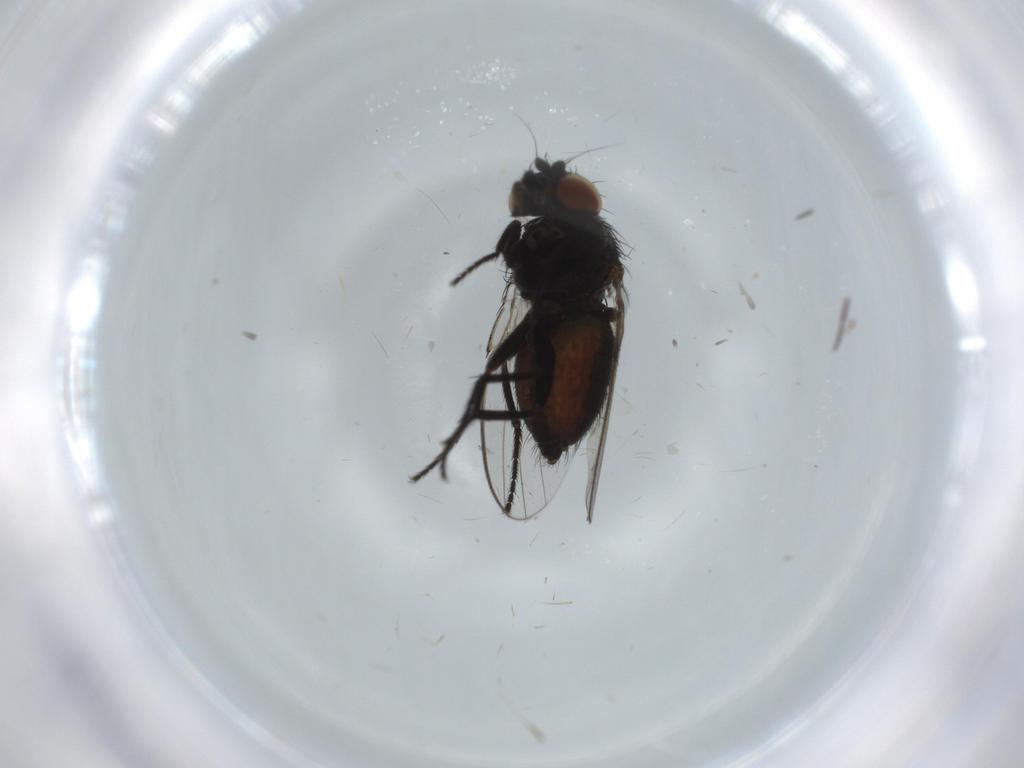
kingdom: Animalia
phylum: Arthropoda
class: Insecta
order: Diptera
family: Milichiidae
